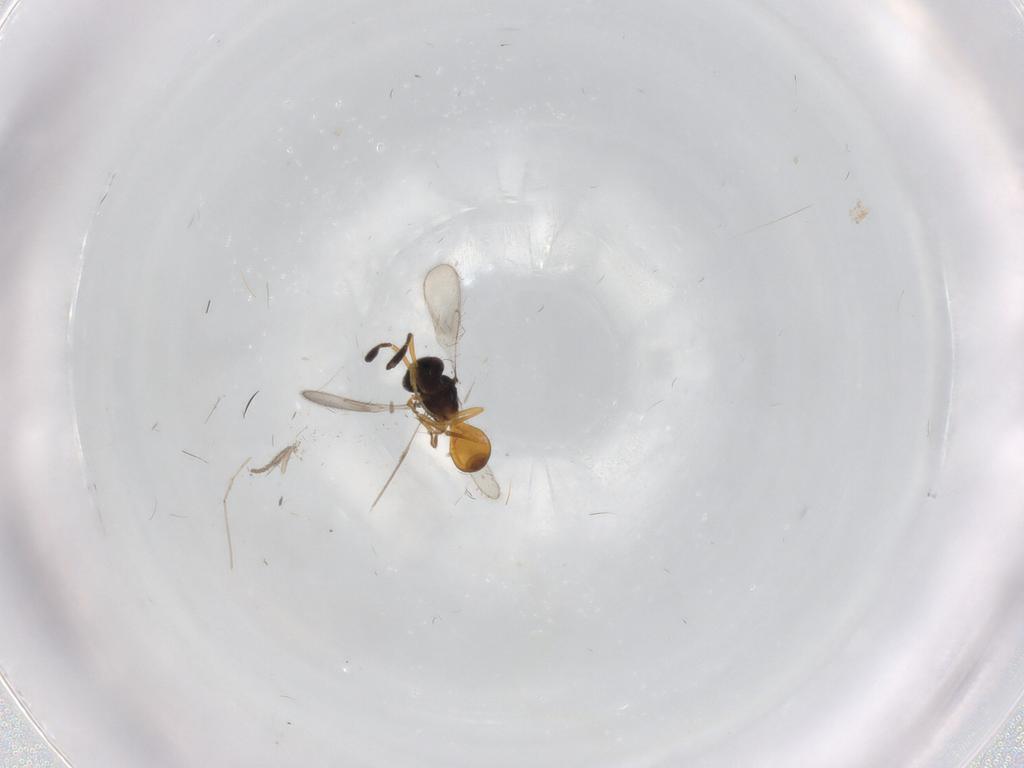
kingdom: Animalia
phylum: Arthropoda
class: Insecta
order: Hymenoptera
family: Scelionidae
